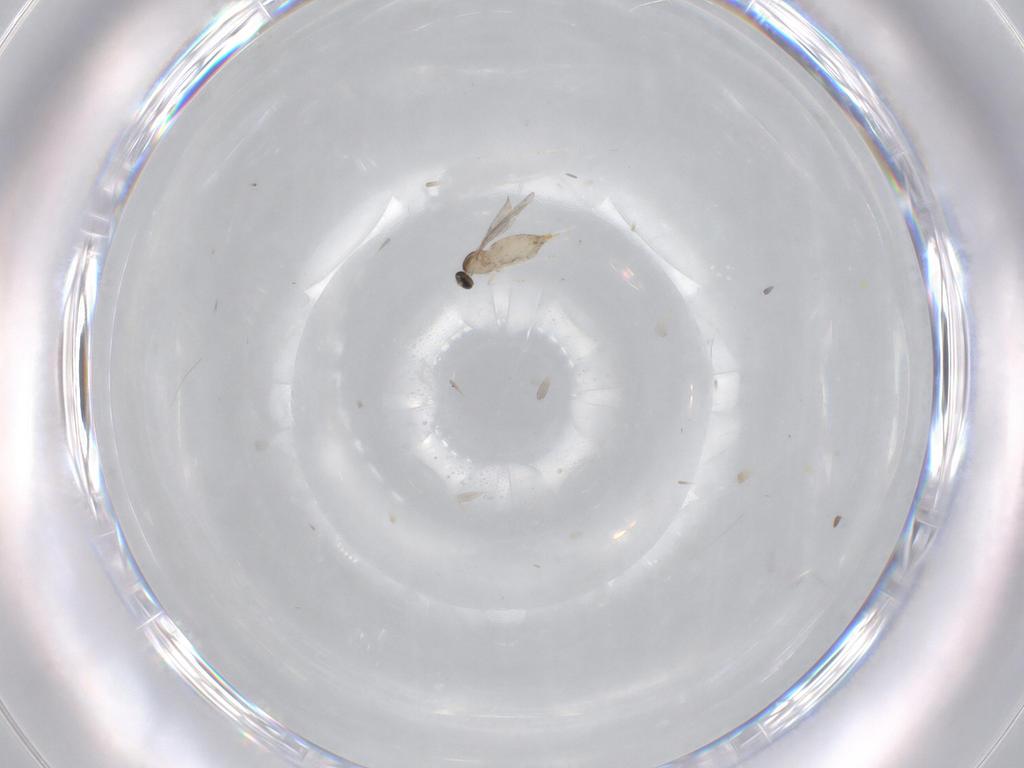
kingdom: Animalia
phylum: Arthropoda
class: Insecta
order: Diptera
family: Cecidomyiidae
